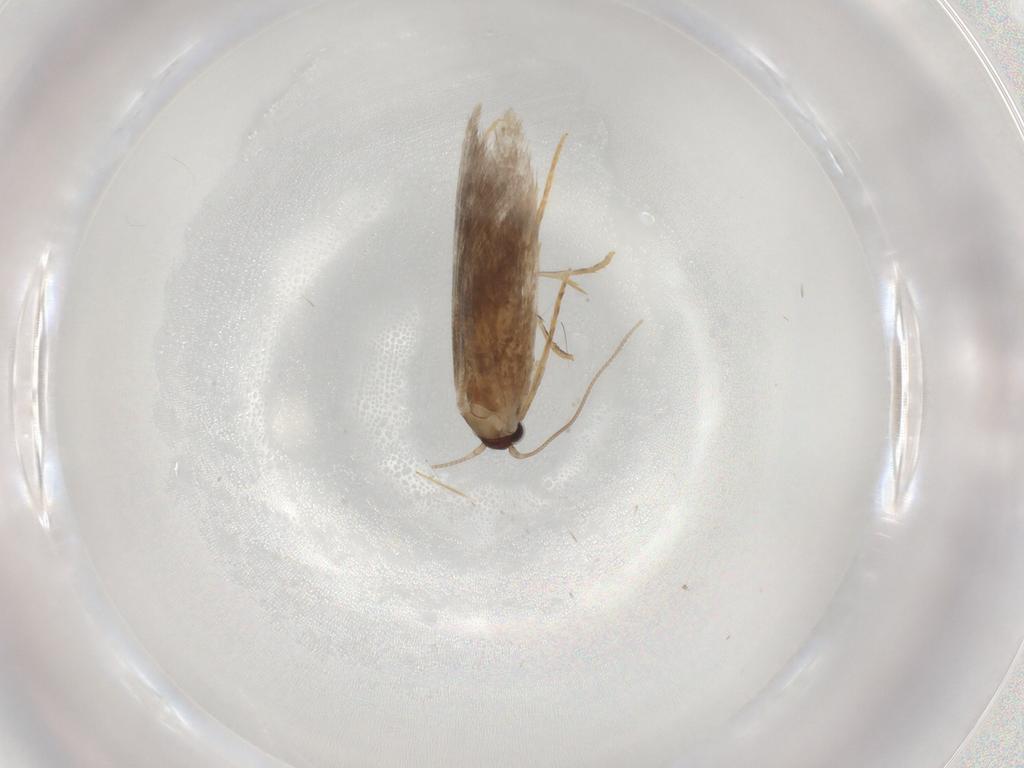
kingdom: Animalia
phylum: Arthropoda
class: Insecta
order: Lepidoptera
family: Tineidae
